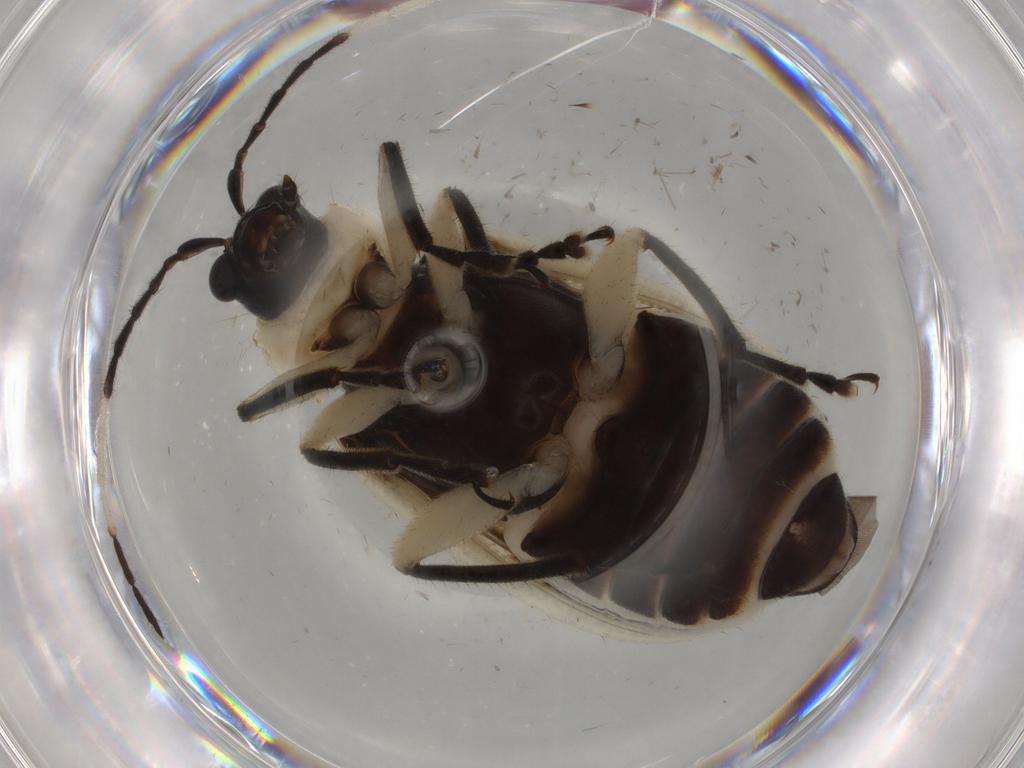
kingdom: Animalia
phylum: Arthropoda
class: Insecta
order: Coleoptera
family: Chrysomelidae
